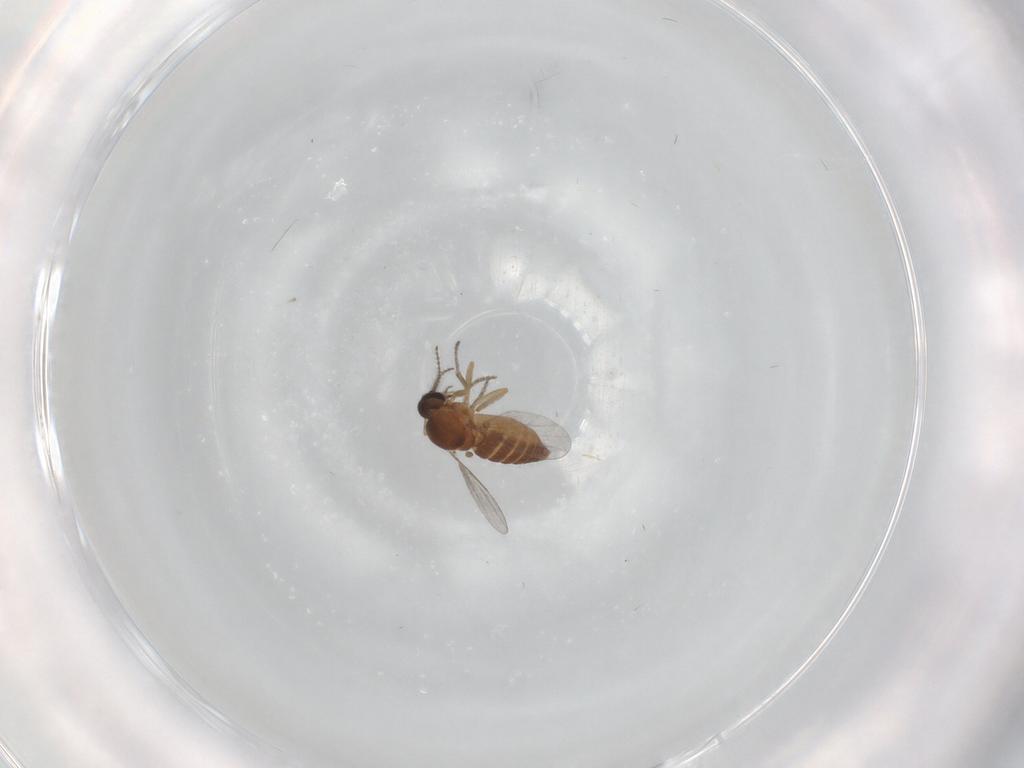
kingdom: Animalia
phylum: Arthropoda
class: Insecta
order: Diptera
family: Ceratopogonidae
